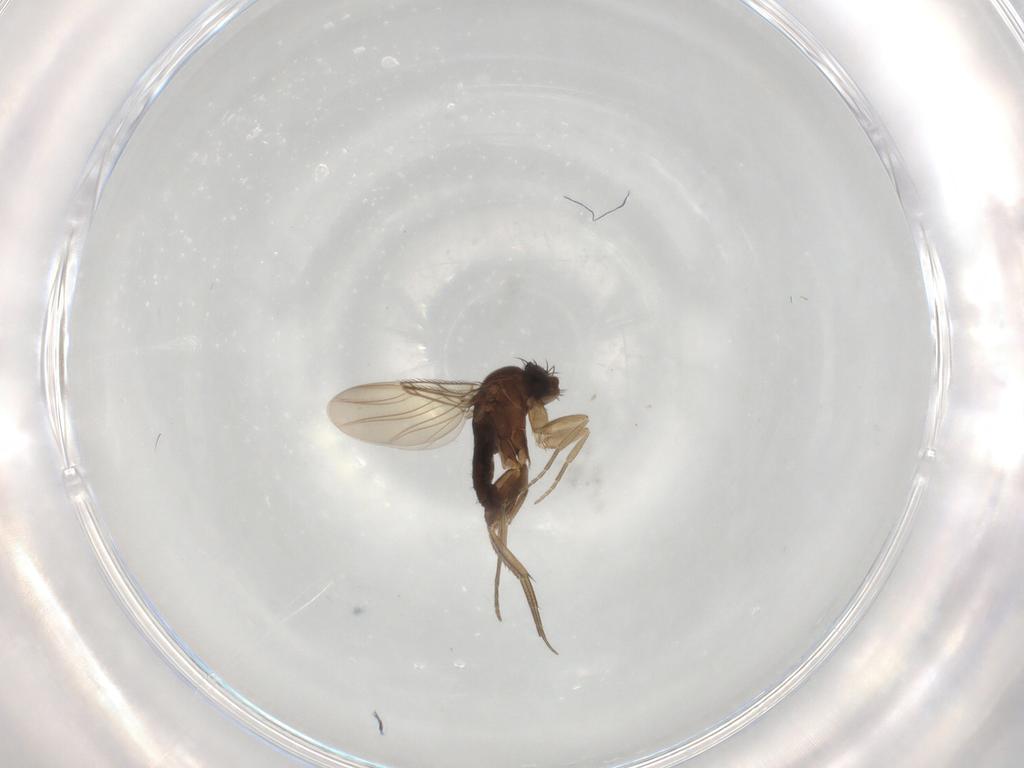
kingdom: Animalia
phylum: Arthropoda
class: Insecta
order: Diptera
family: Phoridae
